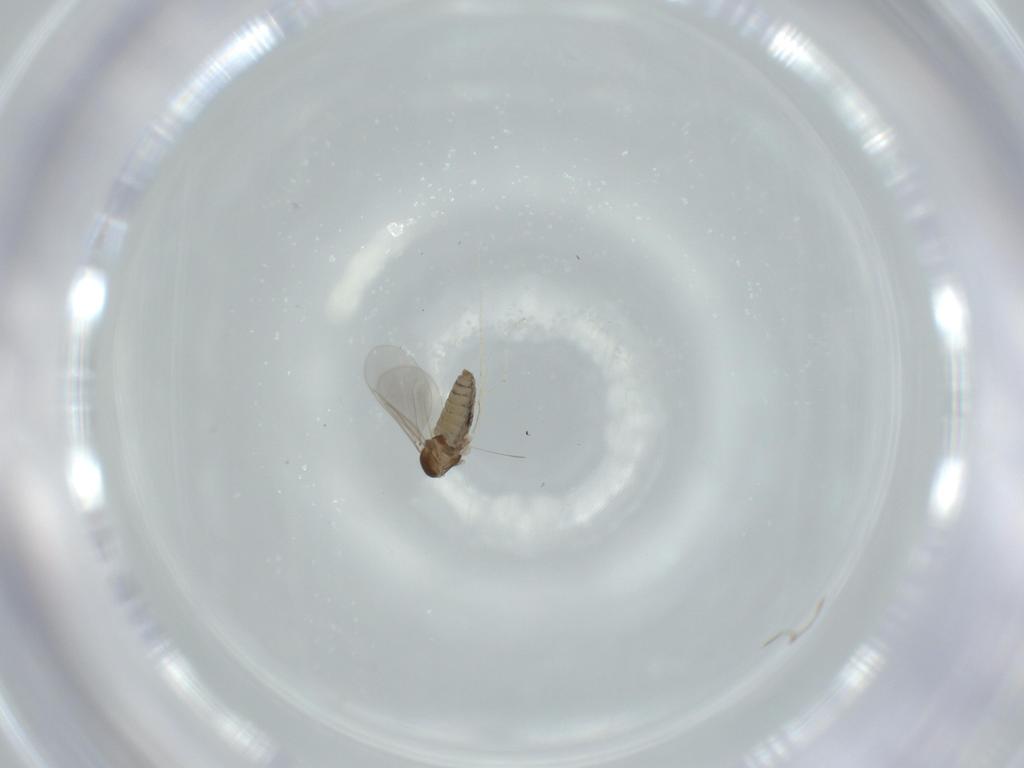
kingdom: Animalia
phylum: Arthropoda
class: Insecta
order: Diptera
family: Cecidomyiidae
